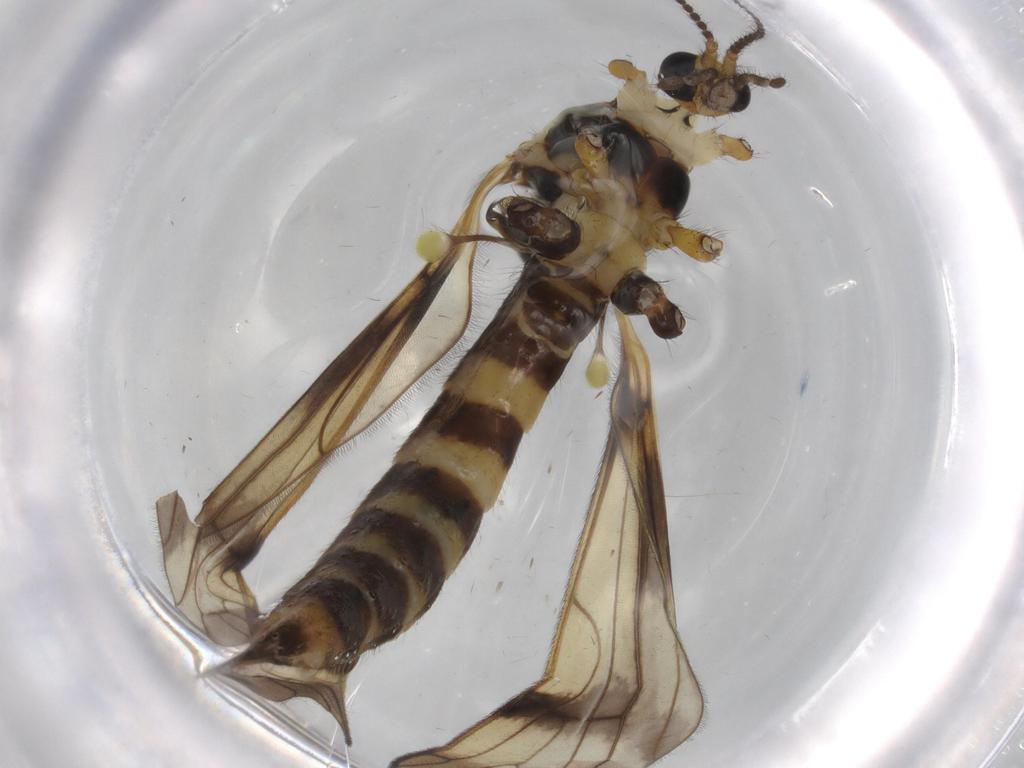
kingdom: Animalia
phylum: Arthropoda
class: Insecta
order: Diptera
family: Limoniidae
